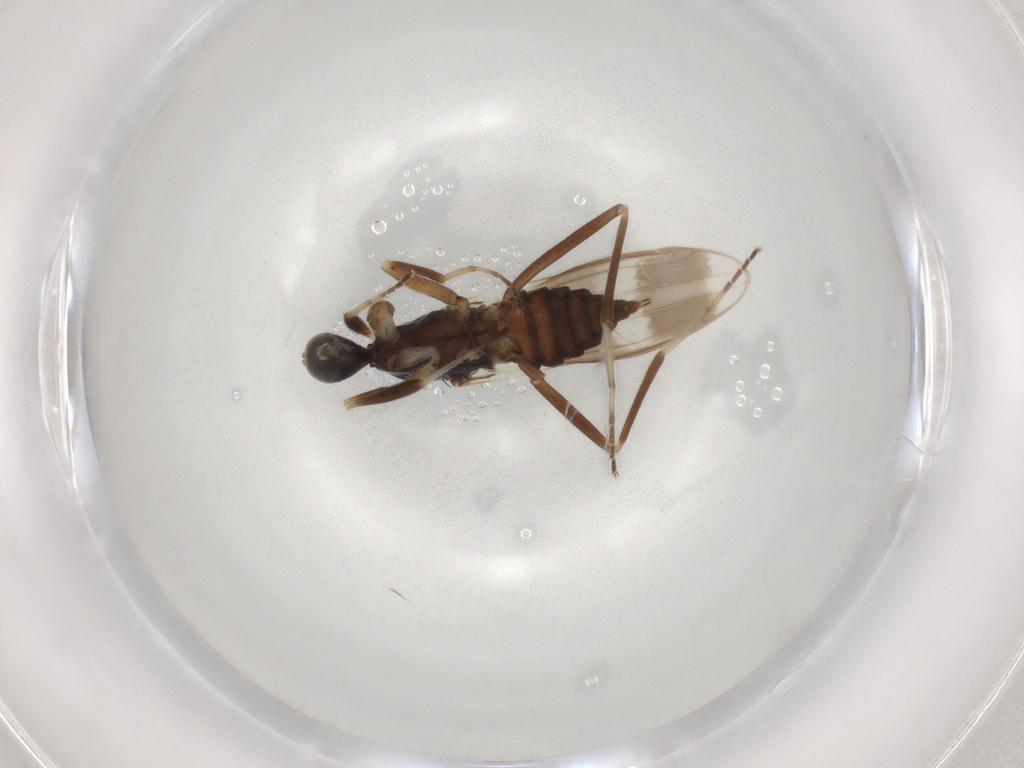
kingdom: Animalia
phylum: Arthropoda
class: Insecta
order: Diptera
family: Hybotidae
